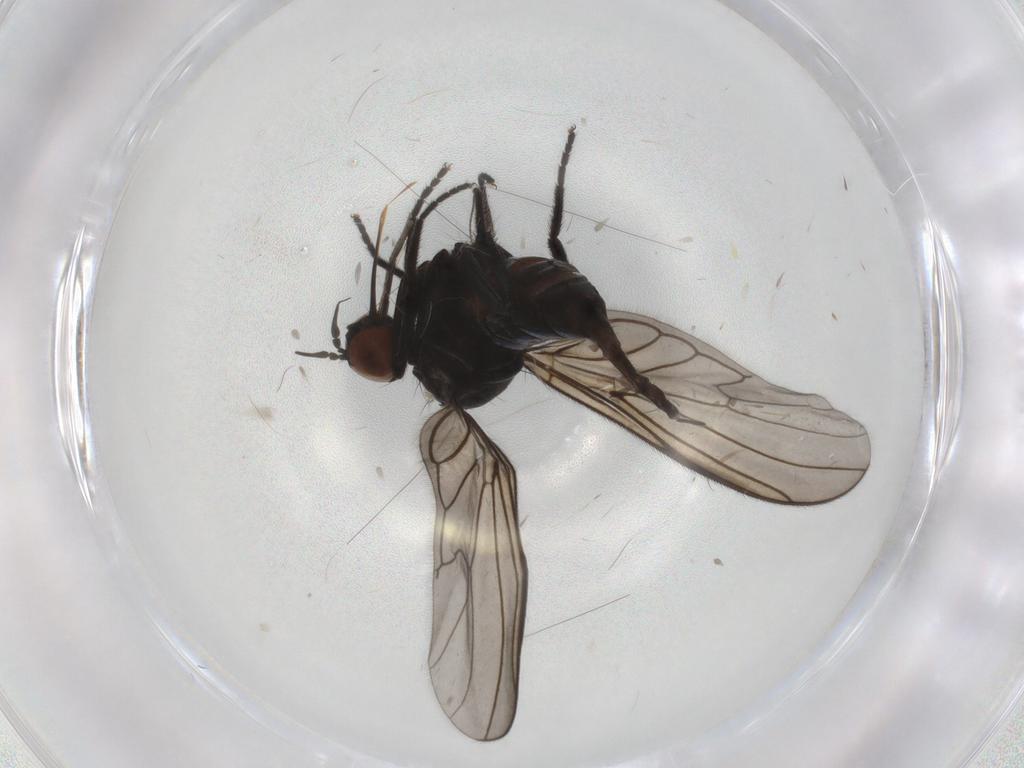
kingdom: Animalia
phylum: Arthropoda
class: Insecta
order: Diptera
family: Empididae
